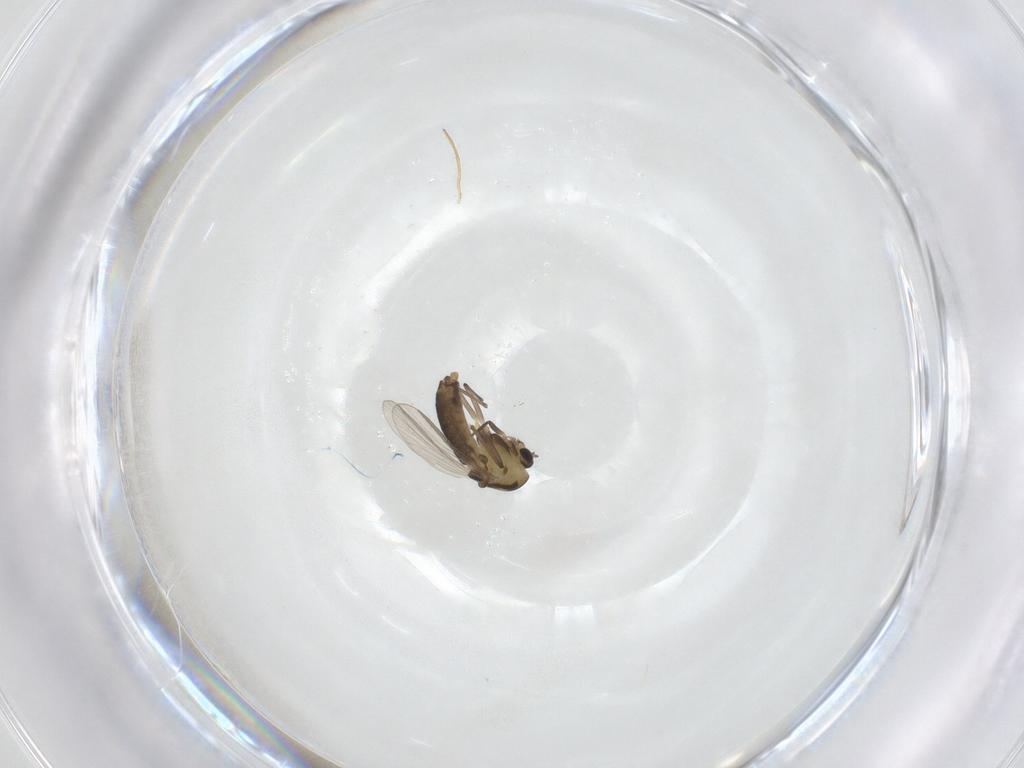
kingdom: Animalia
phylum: Arthropoda
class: Insecta
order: Diptera
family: Chironomidae
